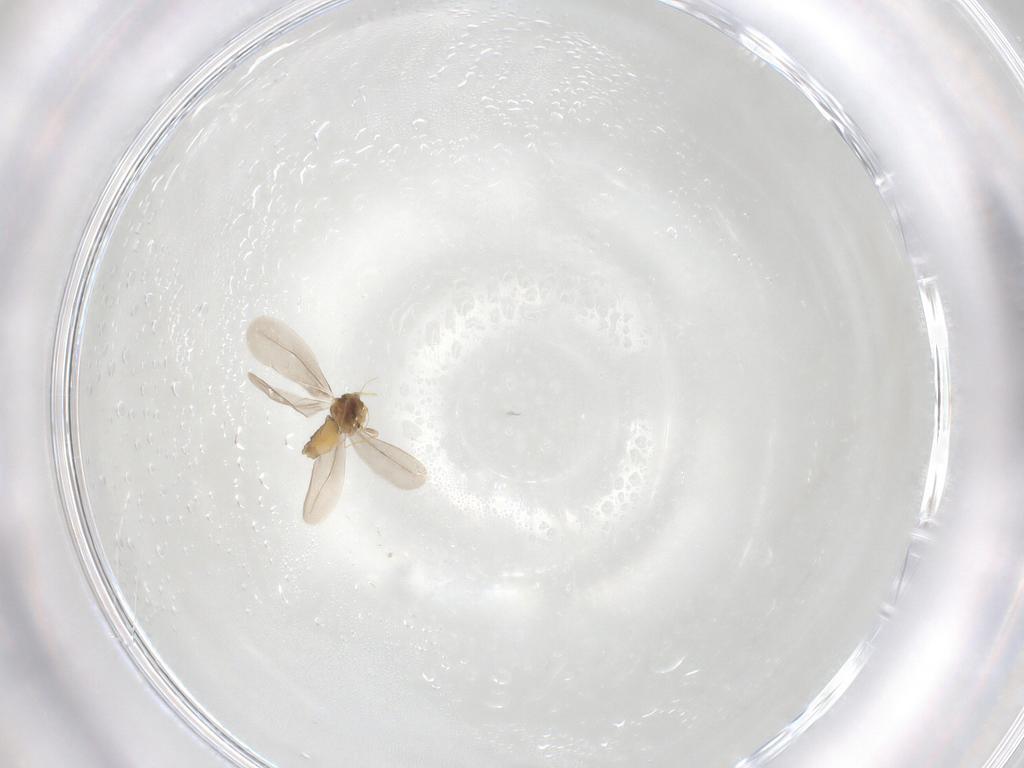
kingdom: Animalia
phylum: Arthropoda
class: Insecta
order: Hemiptera
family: Aleyrodidae
